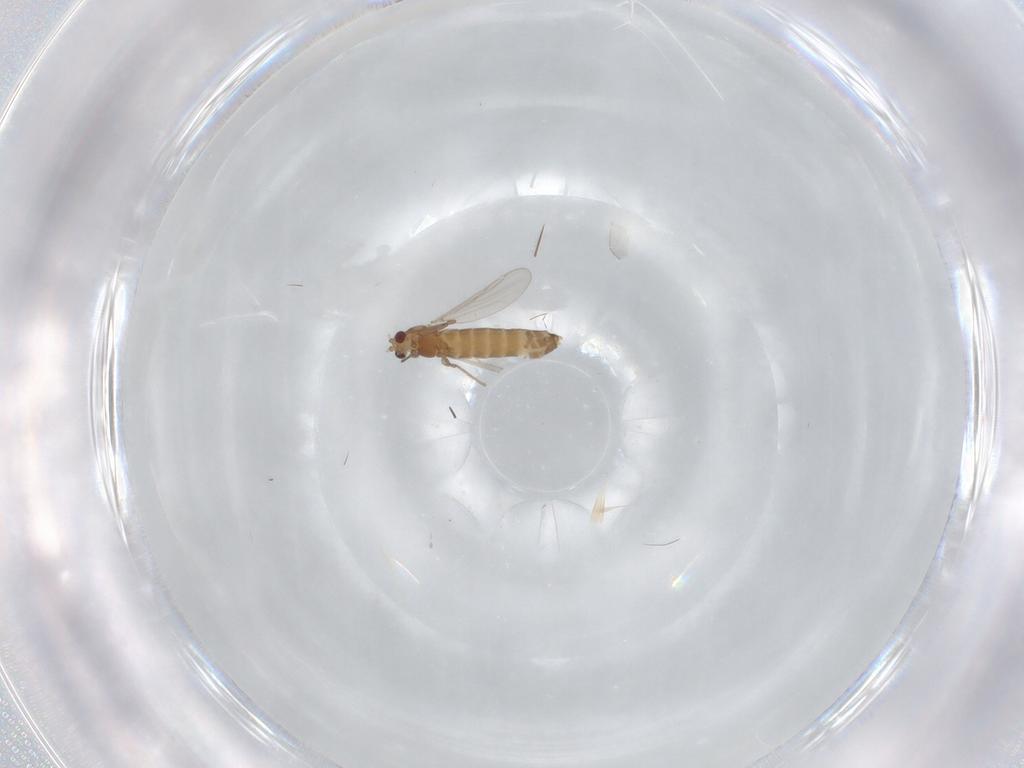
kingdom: Animalia
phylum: Arthropoda
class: Insecta
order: Diptera
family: Chironomidae
